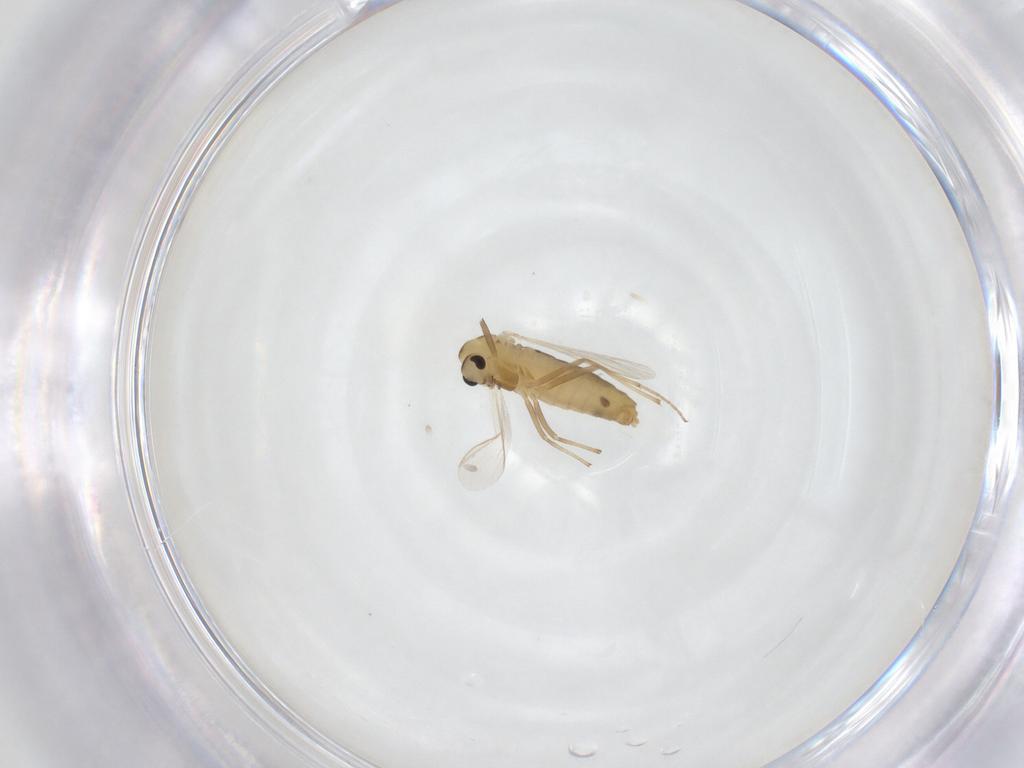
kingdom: Animalia
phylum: Arthropoda
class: Insecta
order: Diptera
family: Chironomidae
